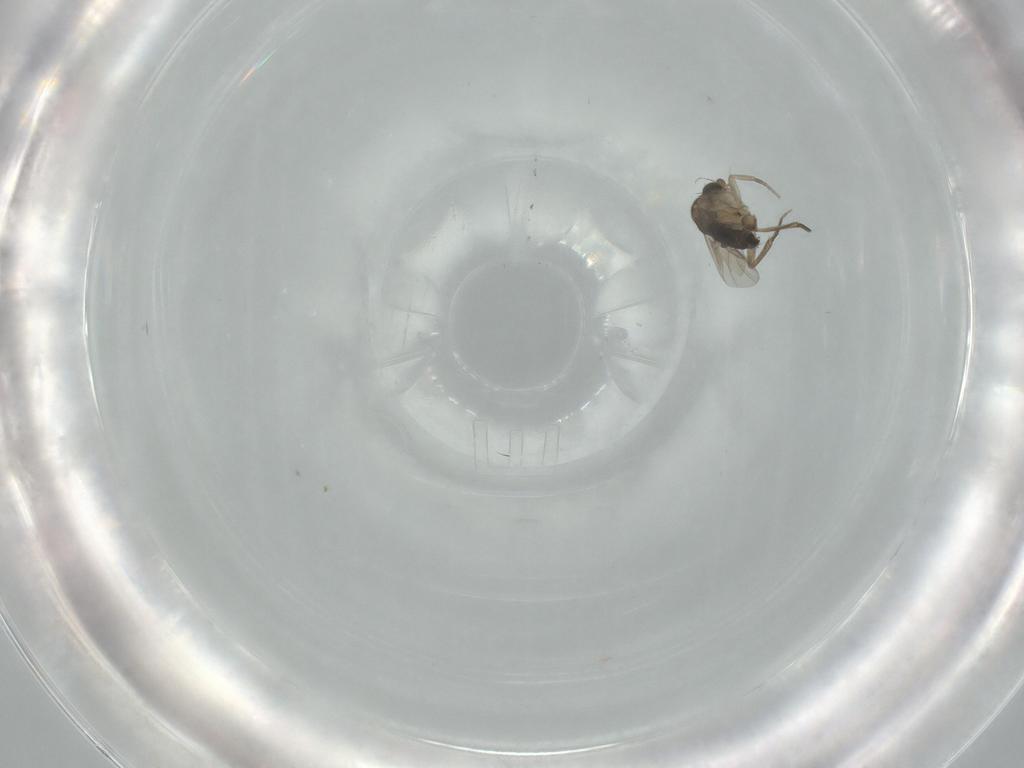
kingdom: Animalia
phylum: Arthropoda
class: Insecta
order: Diptera
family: Phoridae
